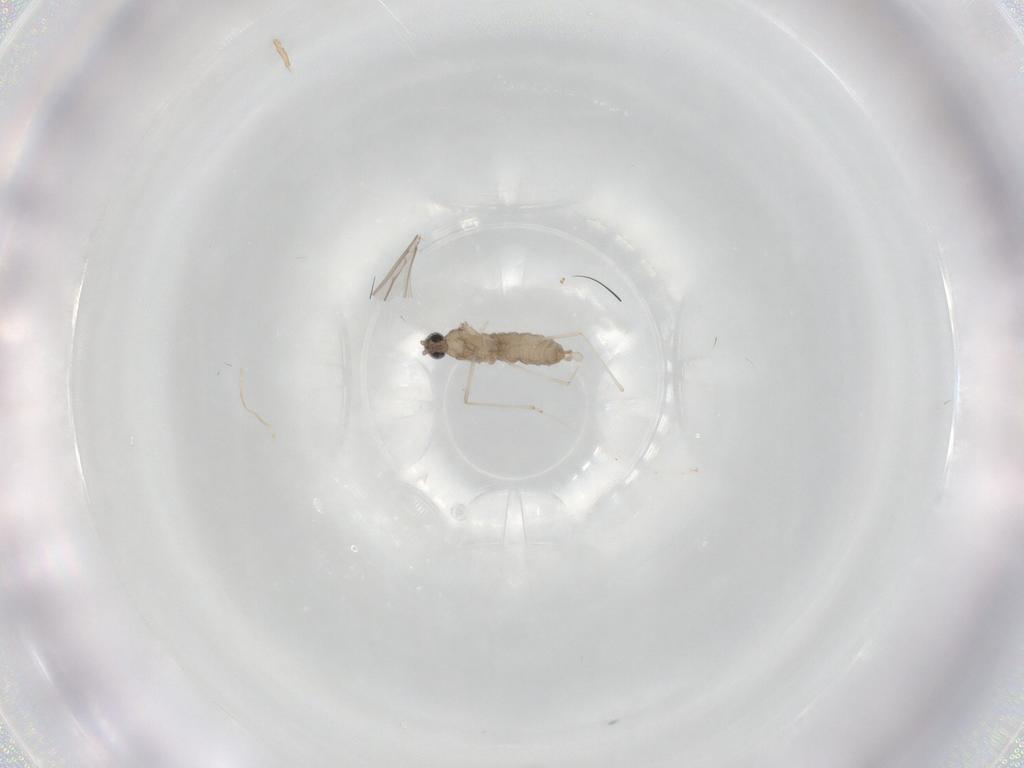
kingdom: Animalia
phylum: Arthropoda
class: Insecta
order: Diptera
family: Cecidomyiidae
